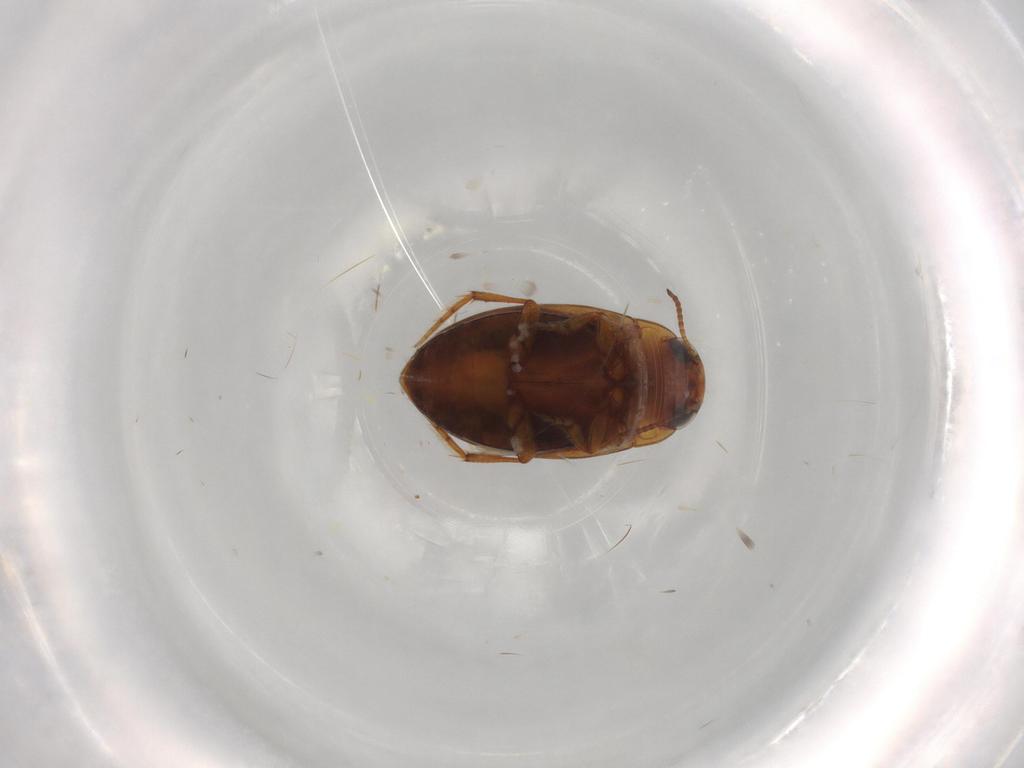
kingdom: Animalia
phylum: Arthropoda
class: Insecta
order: Coleoptera
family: Dytiscidae
